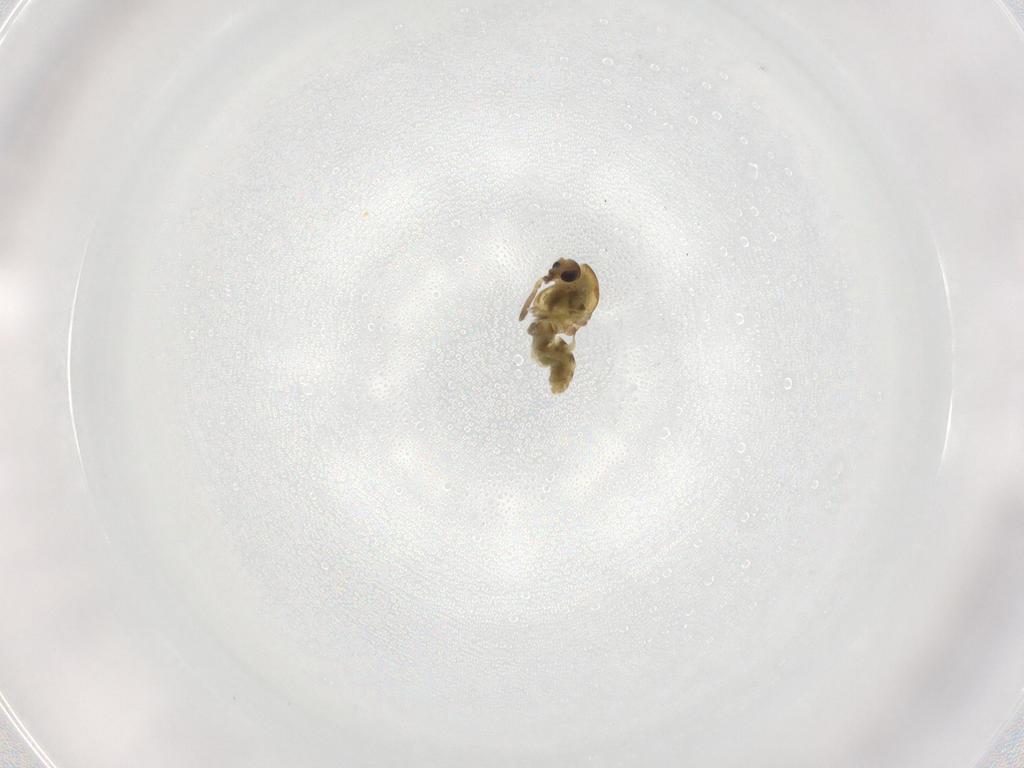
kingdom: Animalia
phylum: Arthropoda
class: Insecta
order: Diptera
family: Chironomidae
